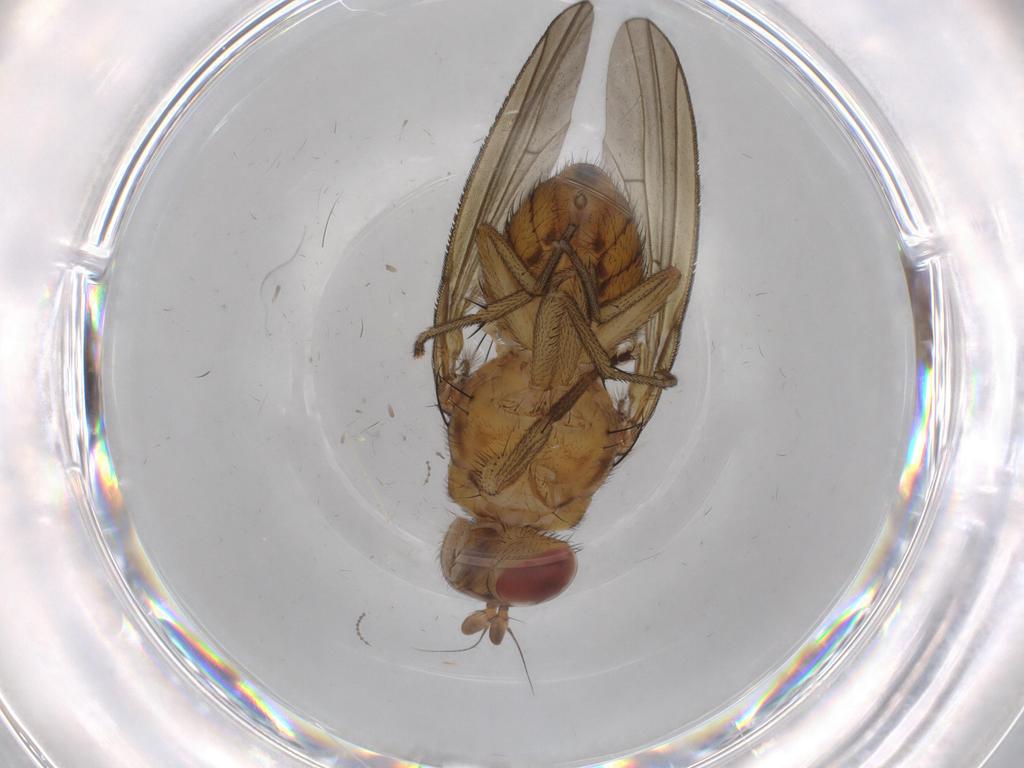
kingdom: Animalia
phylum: Arthropoda
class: Insecta
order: Diptera
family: Cecidomyiidae
